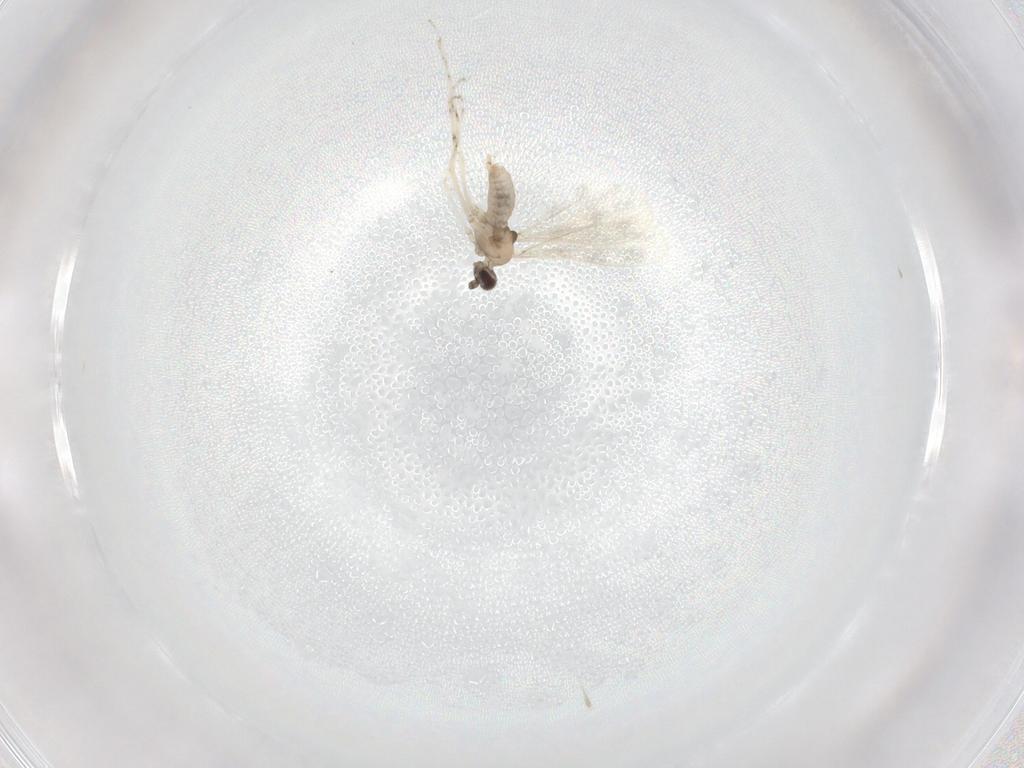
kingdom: Animalia
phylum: Arthropoda
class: Insecta
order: Diptera
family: Cecidomyiidae
